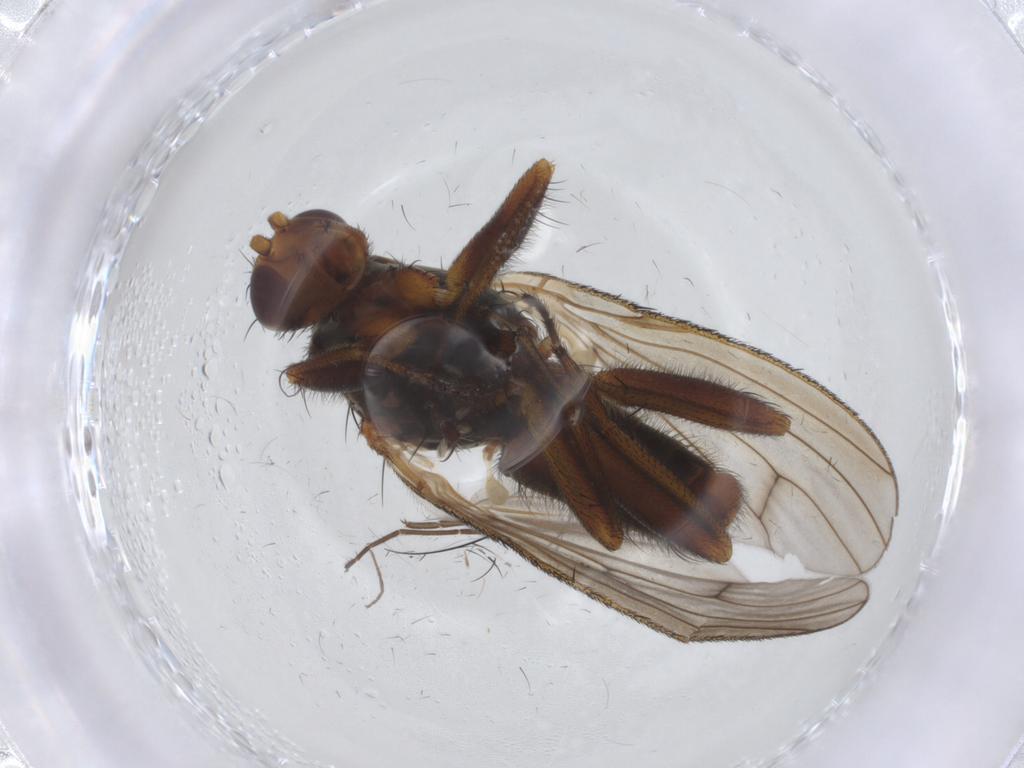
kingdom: Animalia
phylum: Arthropoda
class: Insecta
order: Diptera
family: Heleomyzidae
